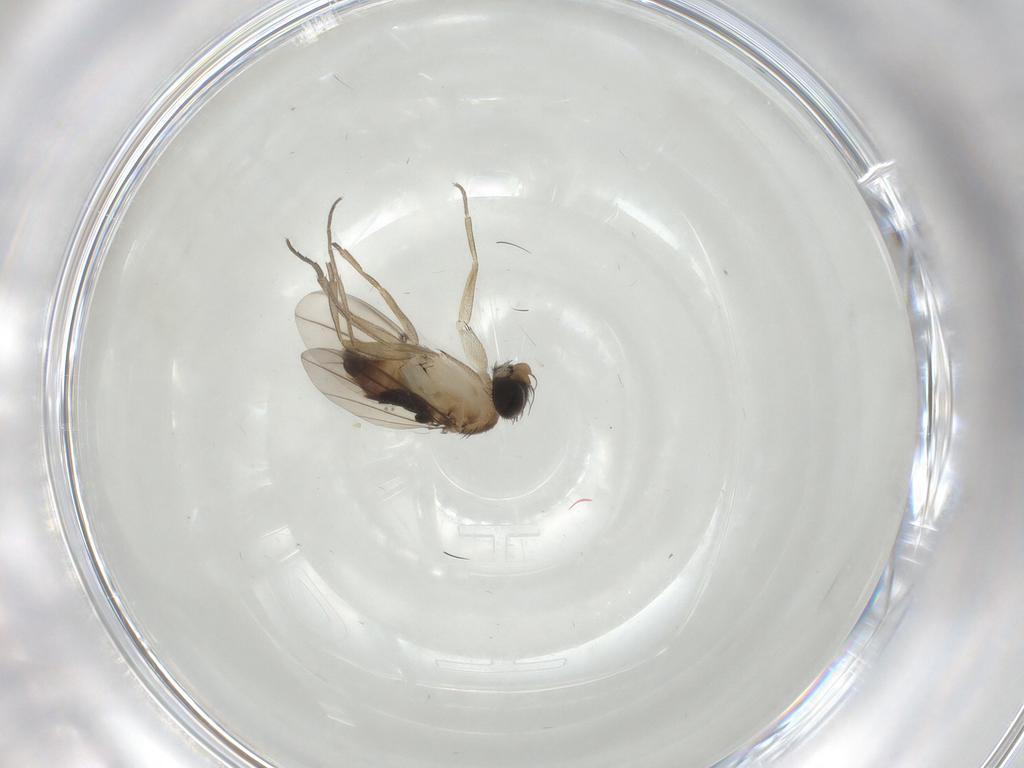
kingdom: Animalia
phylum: Arthropoda
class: Insecta
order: Diptera
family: Phoridae
